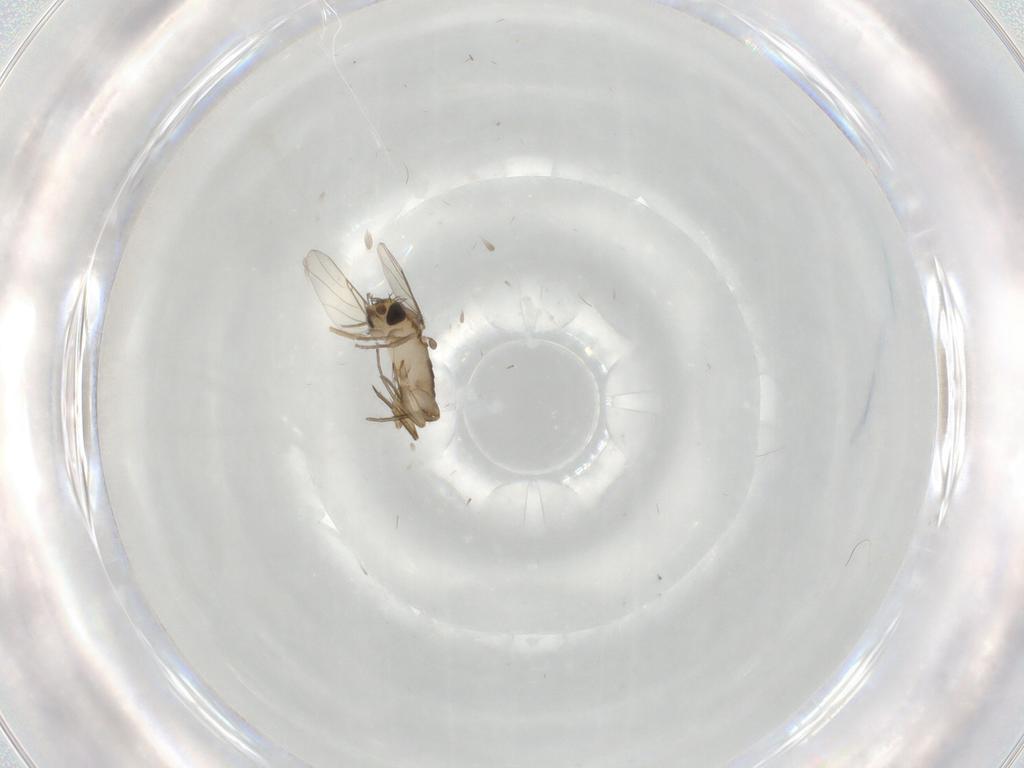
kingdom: Animalia
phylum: Arthropoda
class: Insecta
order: Diptera
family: Phoridae
